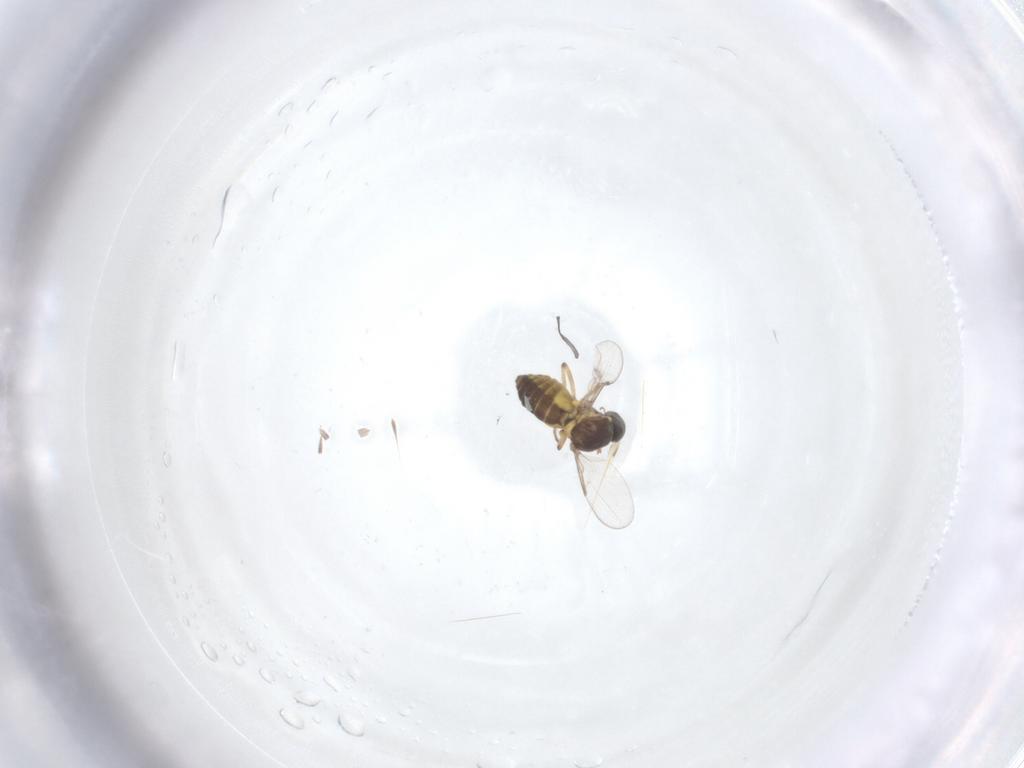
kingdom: Animalia
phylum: Arthropoda
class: Insecta
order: Diptera
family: Ceratopogonidae
